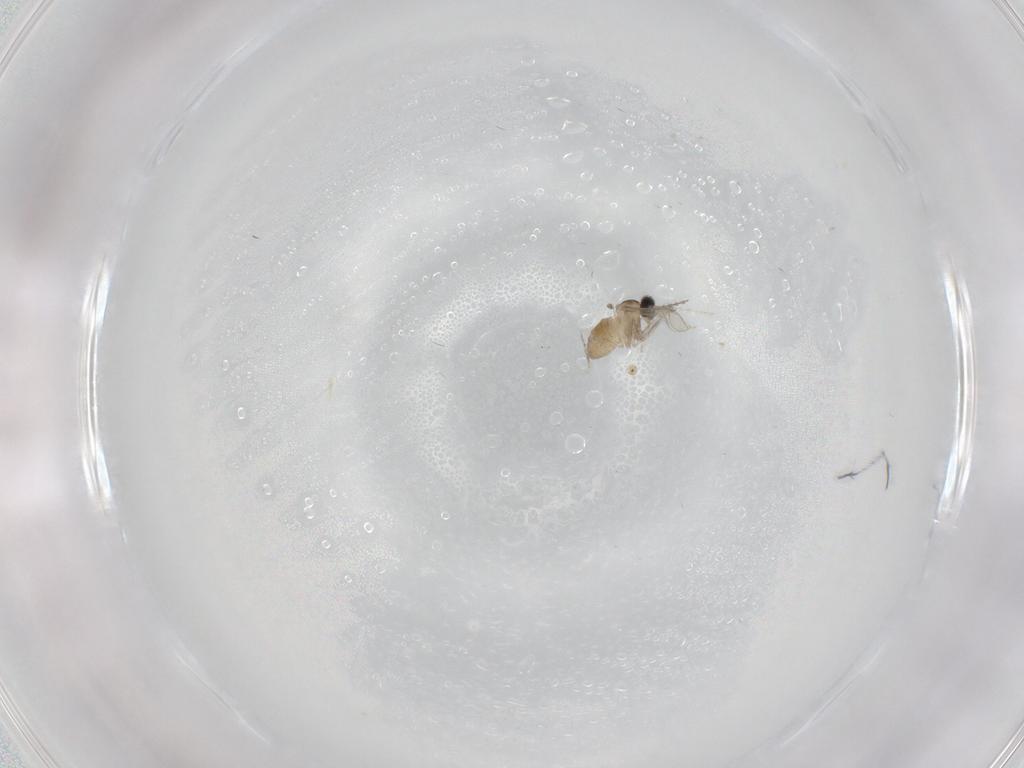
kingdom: Animalia
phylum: Arthropoda
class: Insecta
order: Diptera
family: Cecidomyiidae
